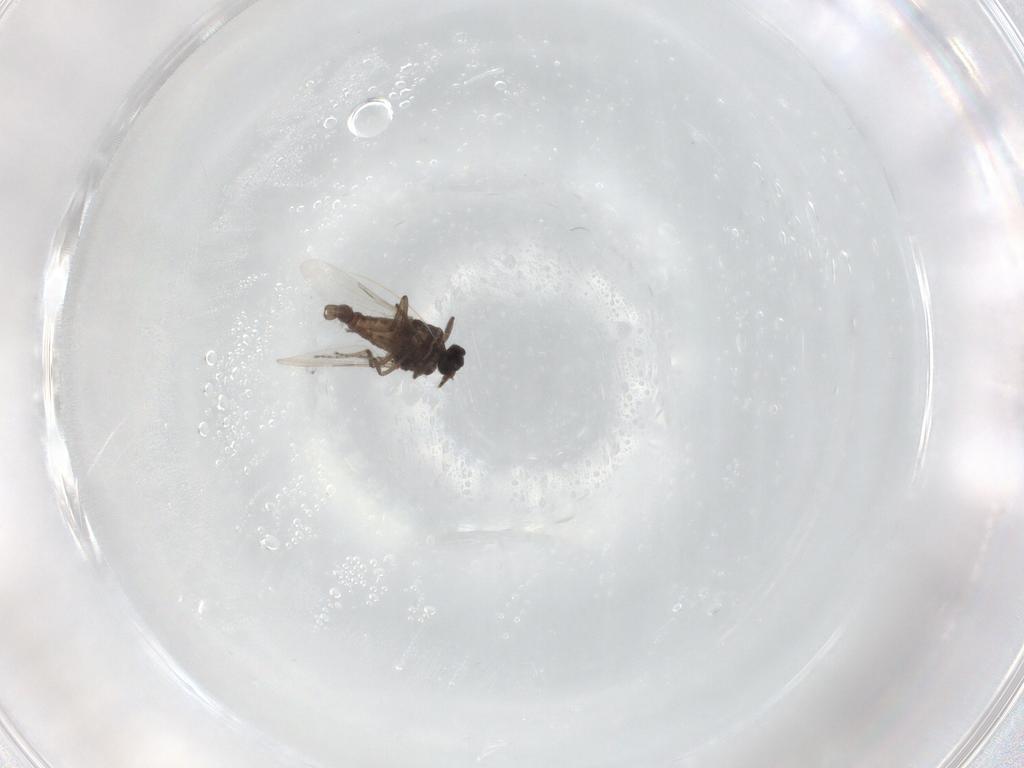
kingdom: Animalia
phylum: Arthropoda
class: Insecta
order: Diptera
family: Ceratopogonidae
